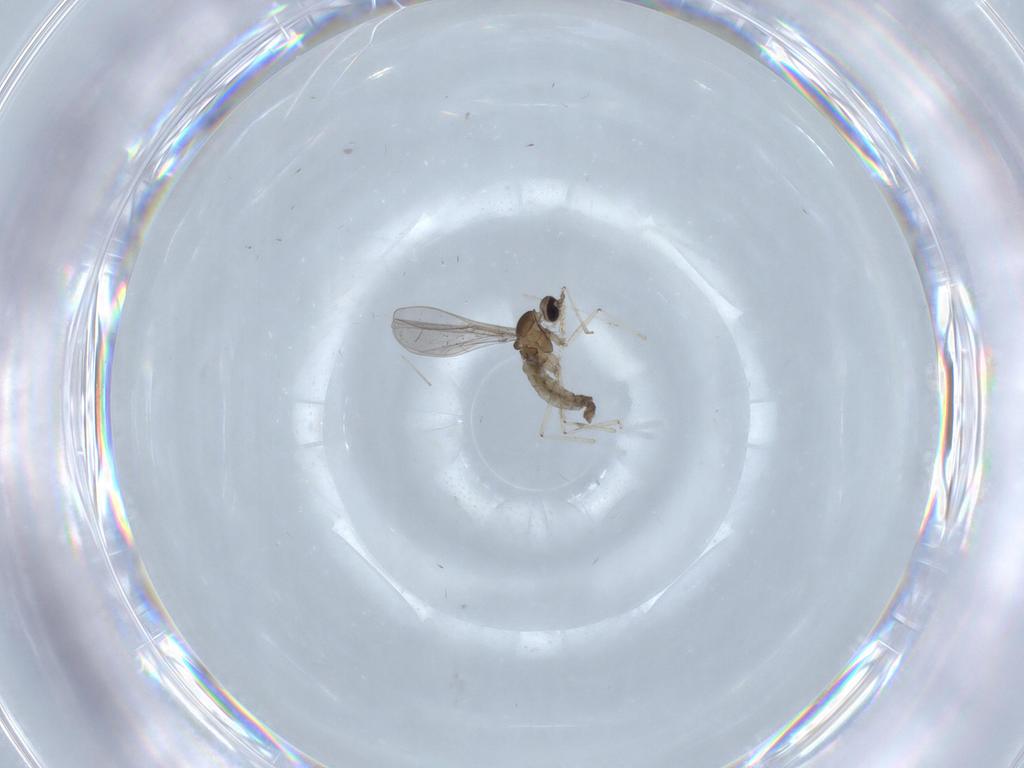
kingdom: Animalia
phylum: Arthropoda
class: Insecta
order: Diptera
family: Cecidomyiidae
